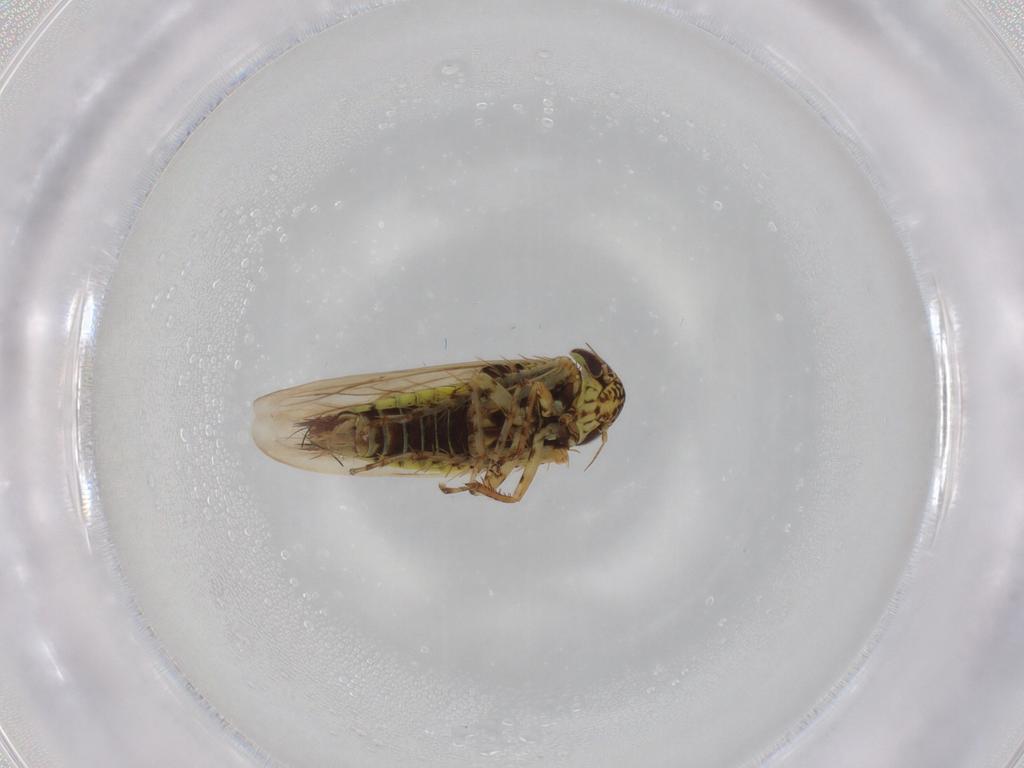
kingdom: Animalia
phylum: Arthropoda
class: Insecta
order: Hemiptera
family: Cicadellidae
